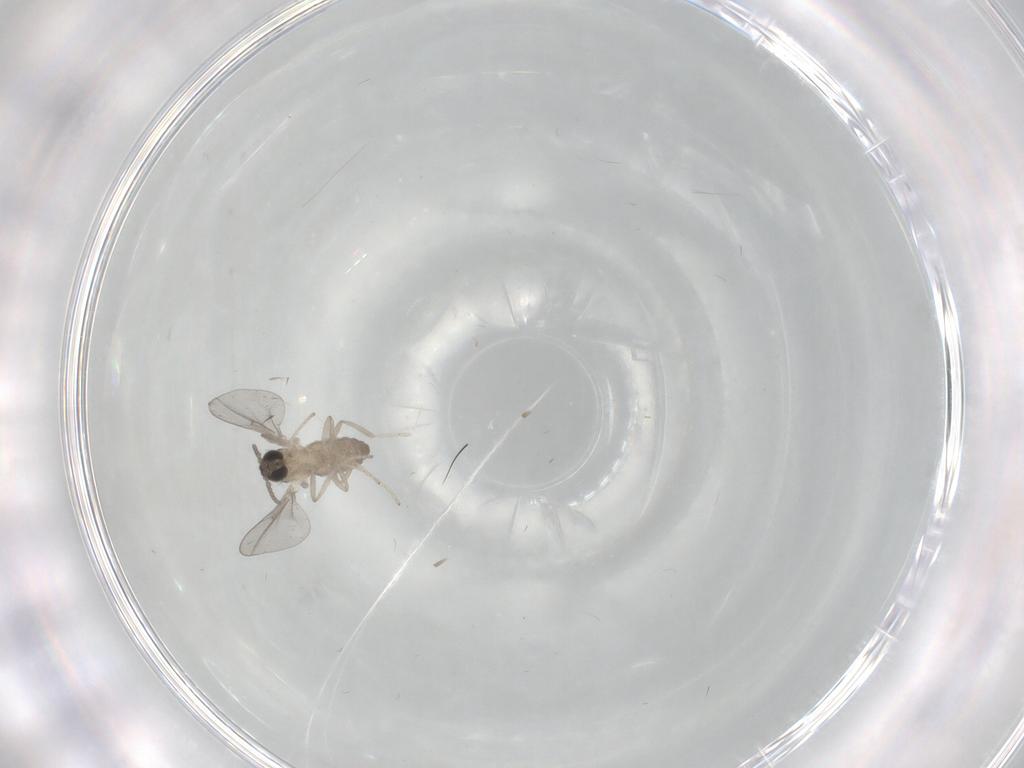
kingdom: Animalia
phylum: Arthropoda
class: Insecta
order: Diptera
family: Cecidomyiidae
